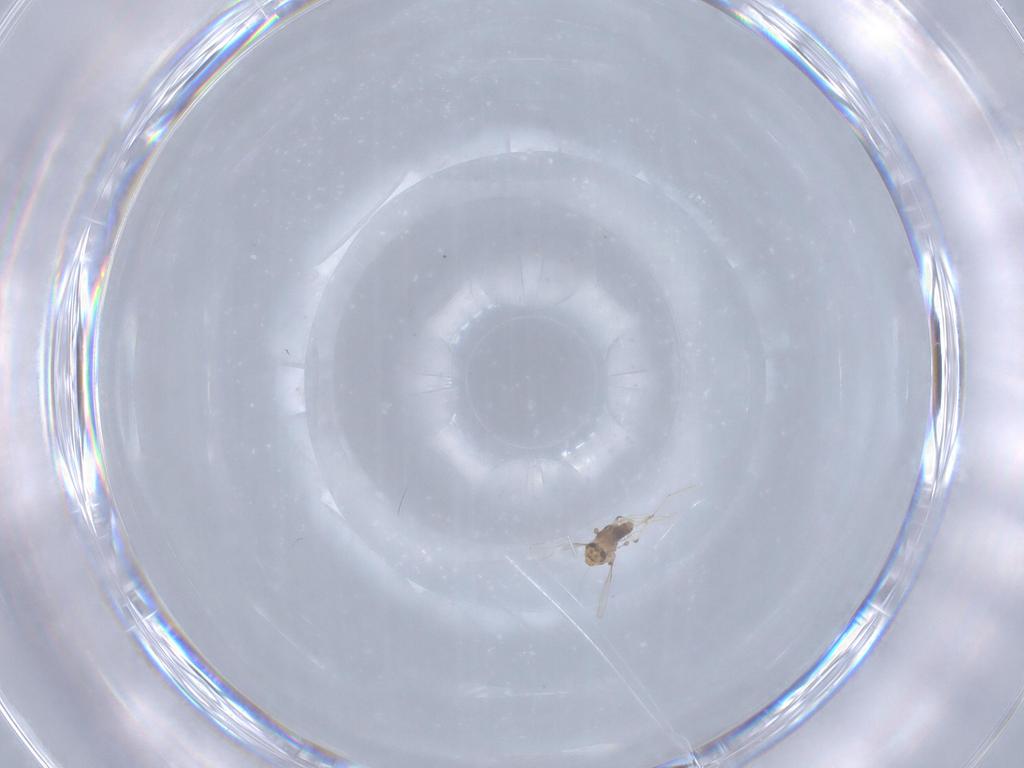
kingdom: Animalia
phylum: Arthropoda
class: Insecta
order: Diptera
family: Chironomidae
